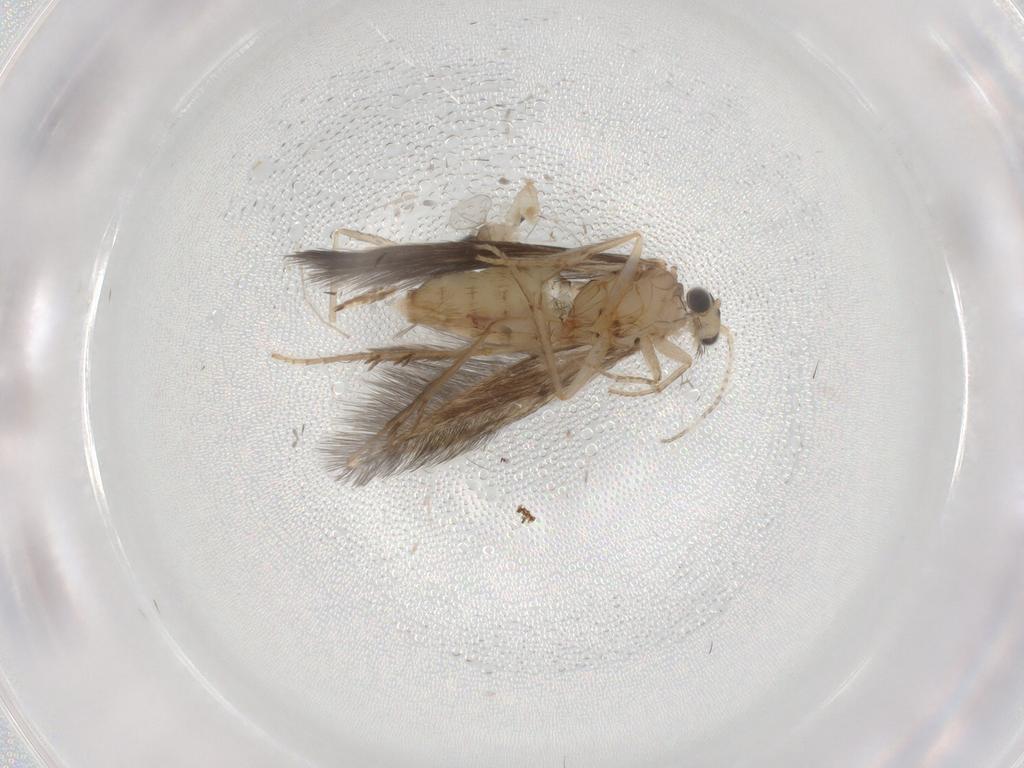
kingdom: Animalia
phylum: Arthropoda
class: Insecta
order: Trichoptera
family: Hydroptilidae
